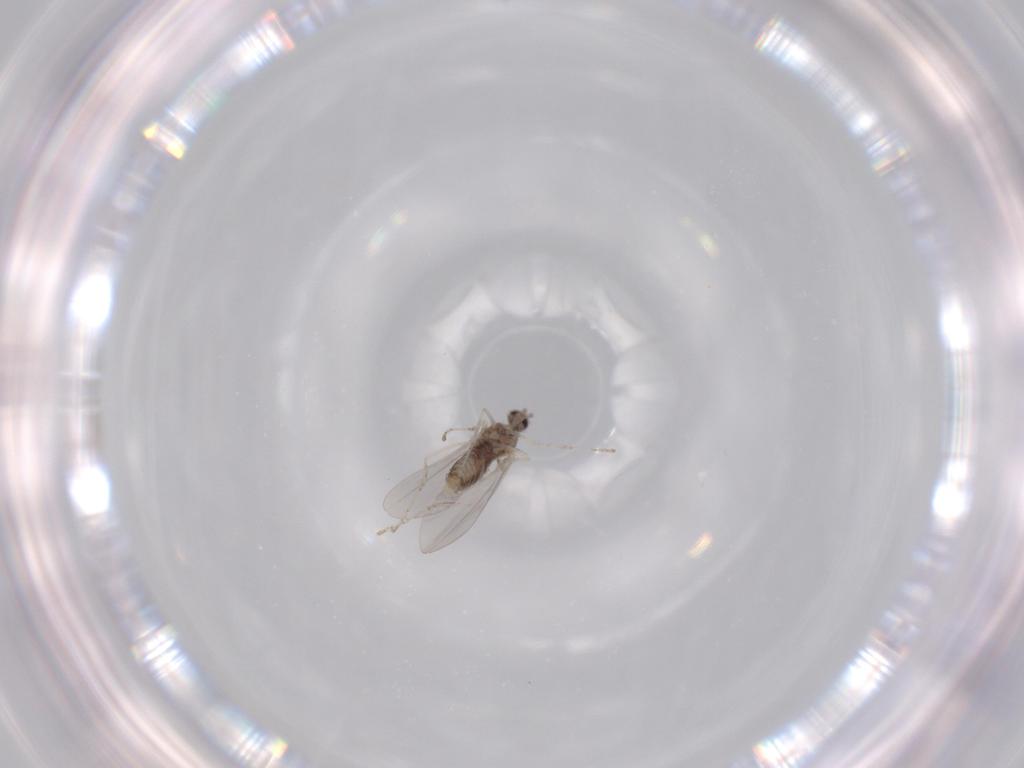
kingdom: Animalia
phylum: Arthropoda
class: Insecta
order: Diptera
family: Cecidomyiidae
